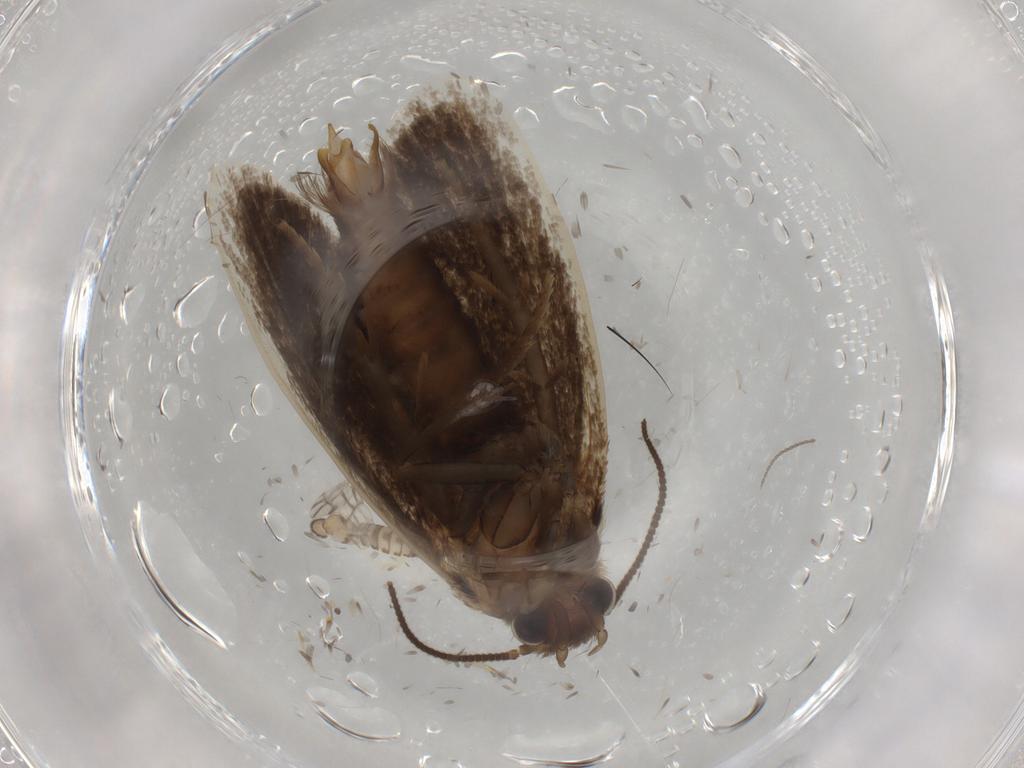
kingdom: Animalia
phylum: Arthropoda
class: Insecta
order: Lepidoptera
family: Tineidae
